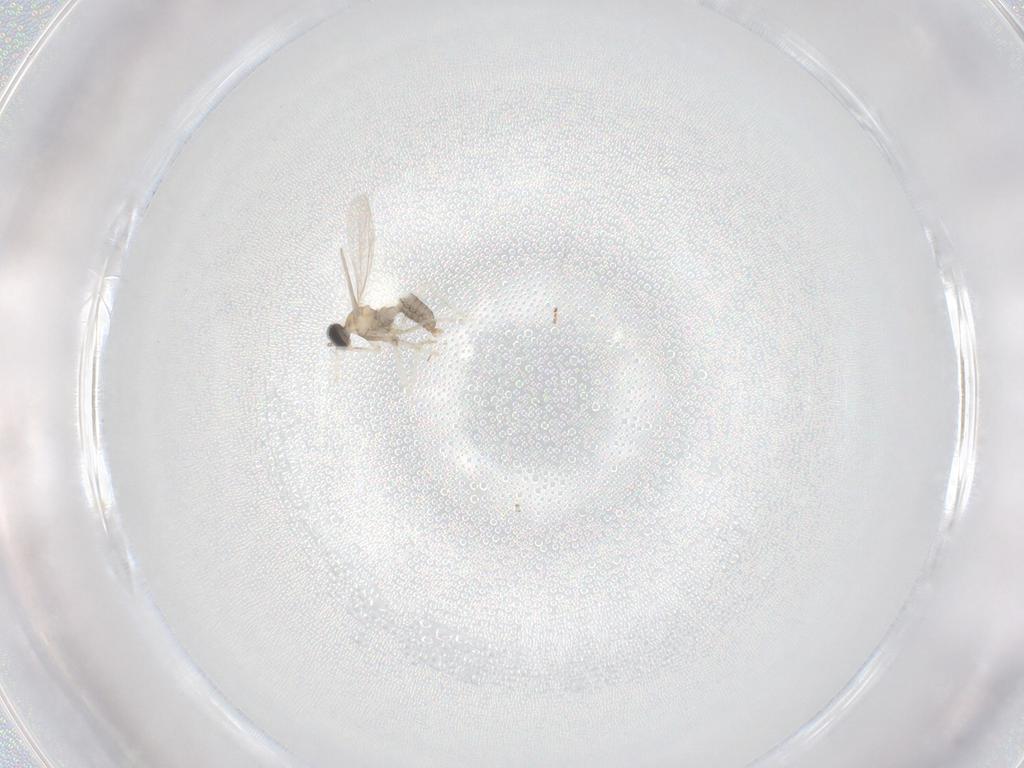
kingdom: Animalia
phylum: Arthropoda
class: Insecta
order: Diptera
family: Cecidomyiidae
